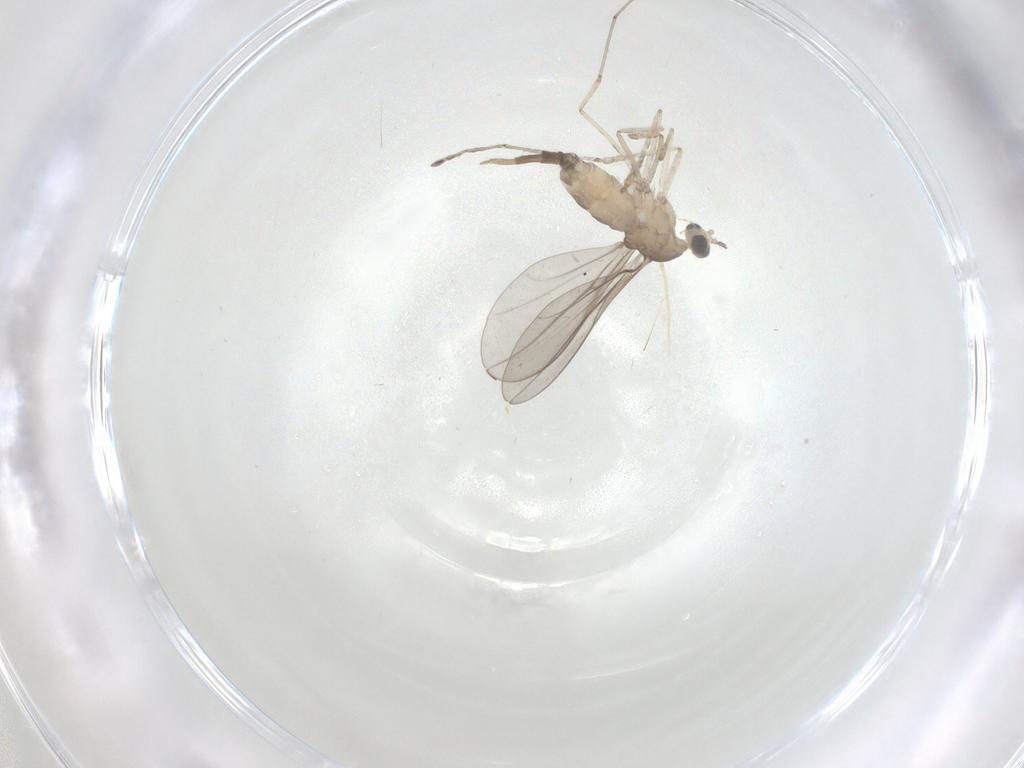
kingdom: Animalia
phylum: Arthropoda
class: Insecta
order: Diptera
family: Cecidomyiidae
